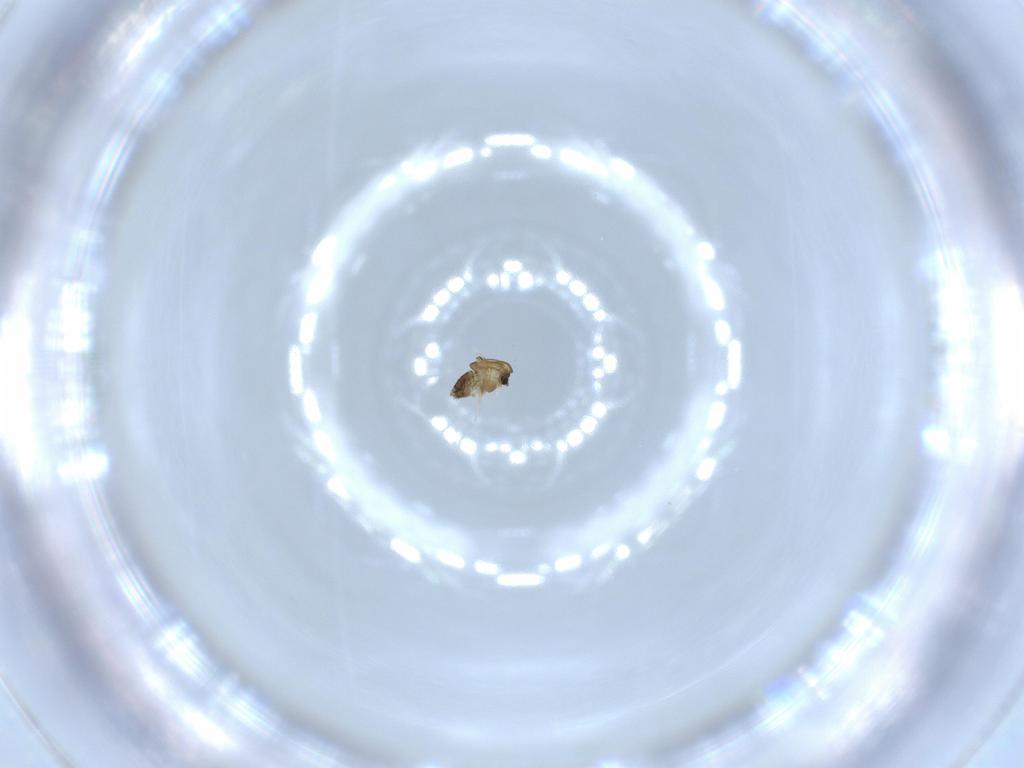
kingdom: Animalia
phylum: Arthropoda
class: Insecta
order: Diptera
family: Chironomidae
